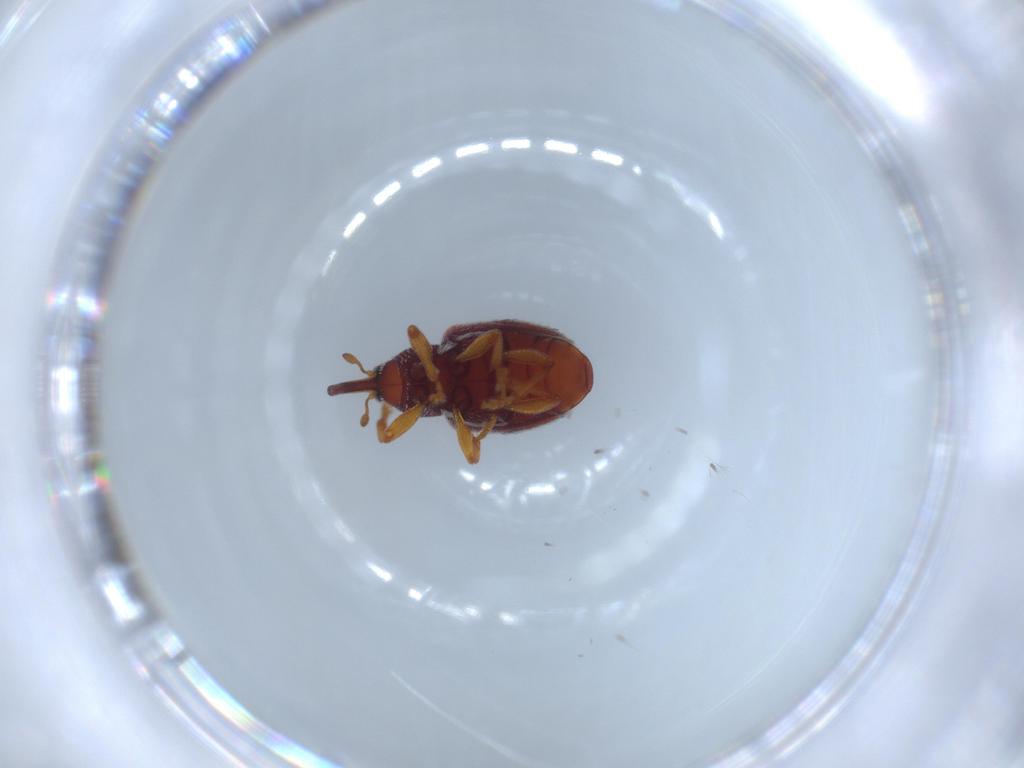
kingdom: Animalia
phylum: Arthropoda
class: Insecta
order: Coleoptera
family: Curculionidae
